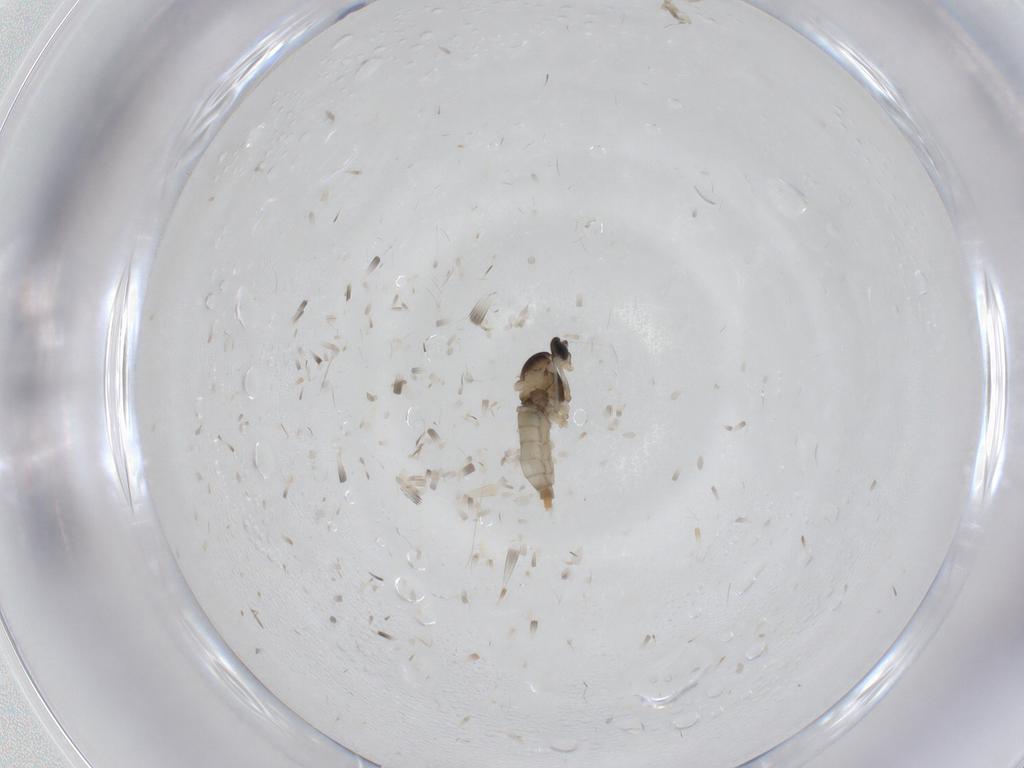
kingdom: Animalia
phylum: Arthropoda
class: Insecta
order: Diptera
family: Cecidomyiidae
